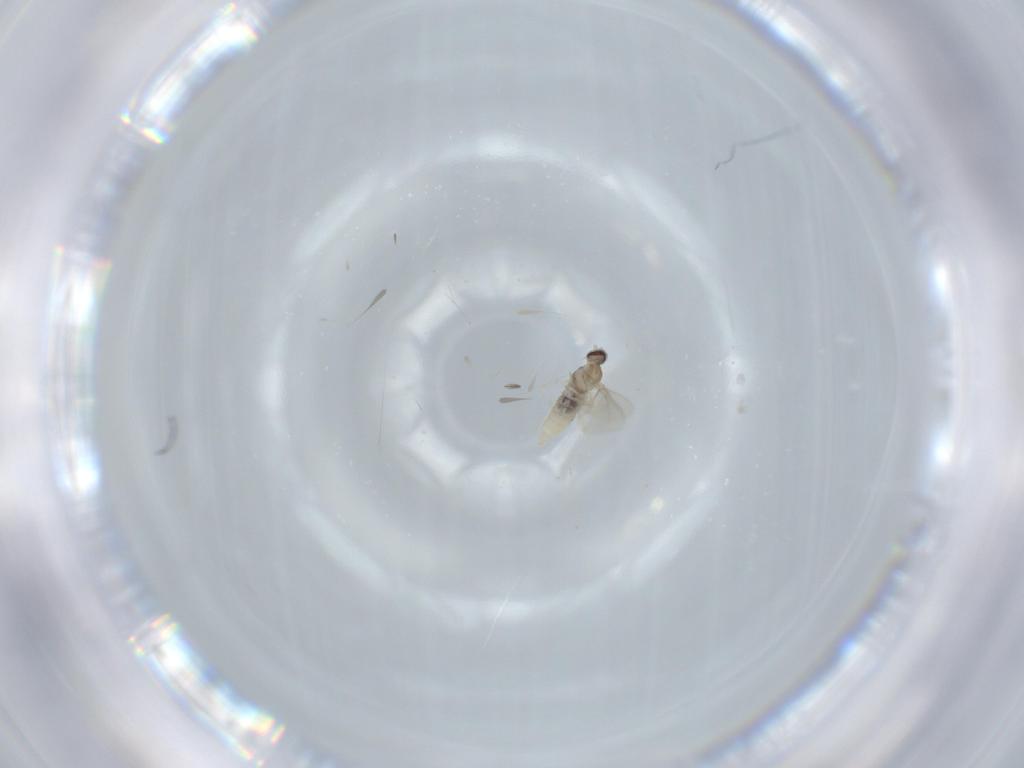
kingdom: Animalia
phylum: Arthropoda
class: Insecta
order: Diptera
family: Cecidomyiidae
